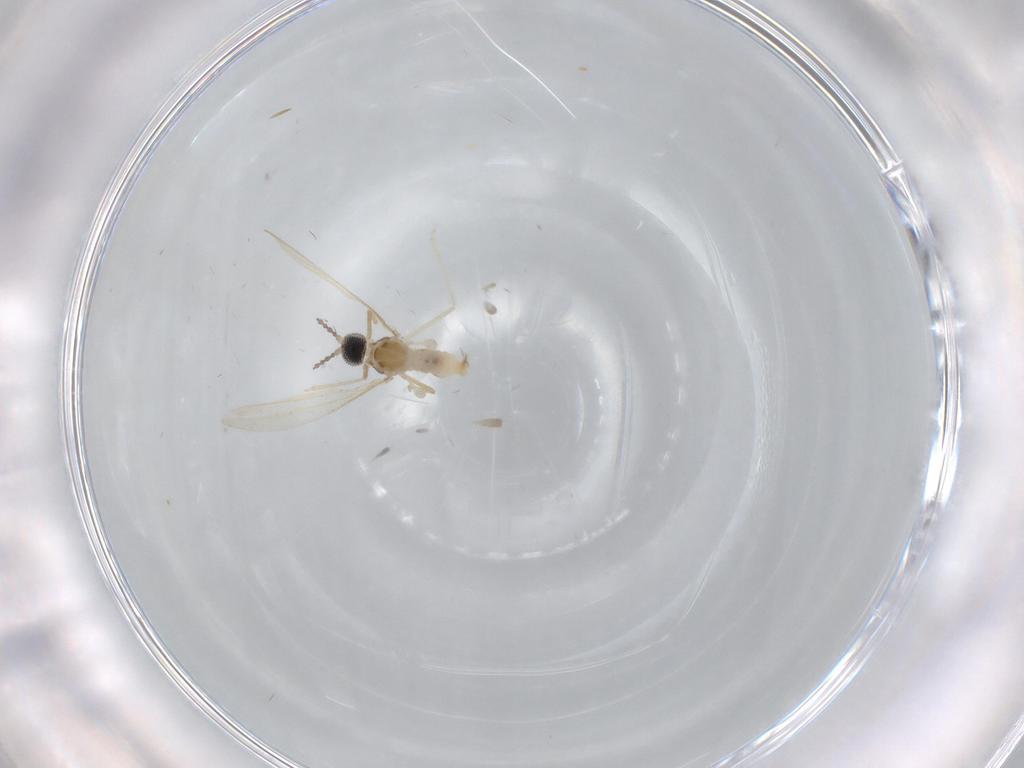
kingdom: Animalia
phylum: Arthropoda
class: Insecta
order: Diptera
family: Cecidomyiidae
